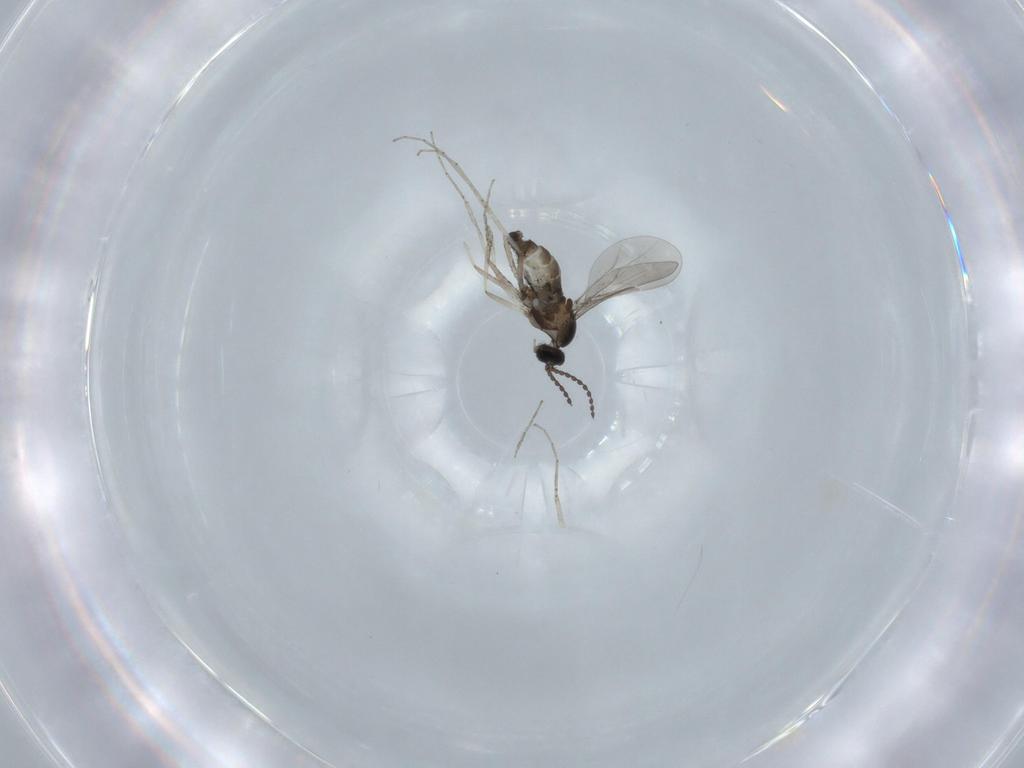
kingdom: Animalia
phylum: Arthropoda
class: Insecta
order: Diptera
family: Cecidomyiidae
